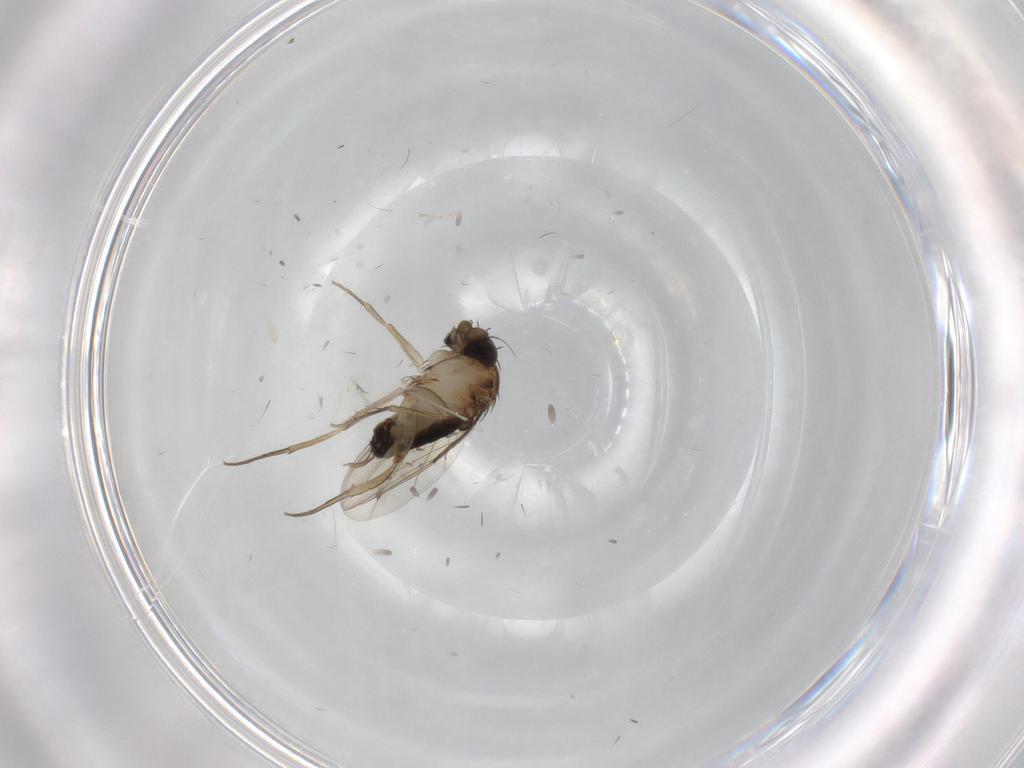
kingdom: Animalia
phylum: Arthropoda
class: Insecta
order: Diptera
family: Phoridae
